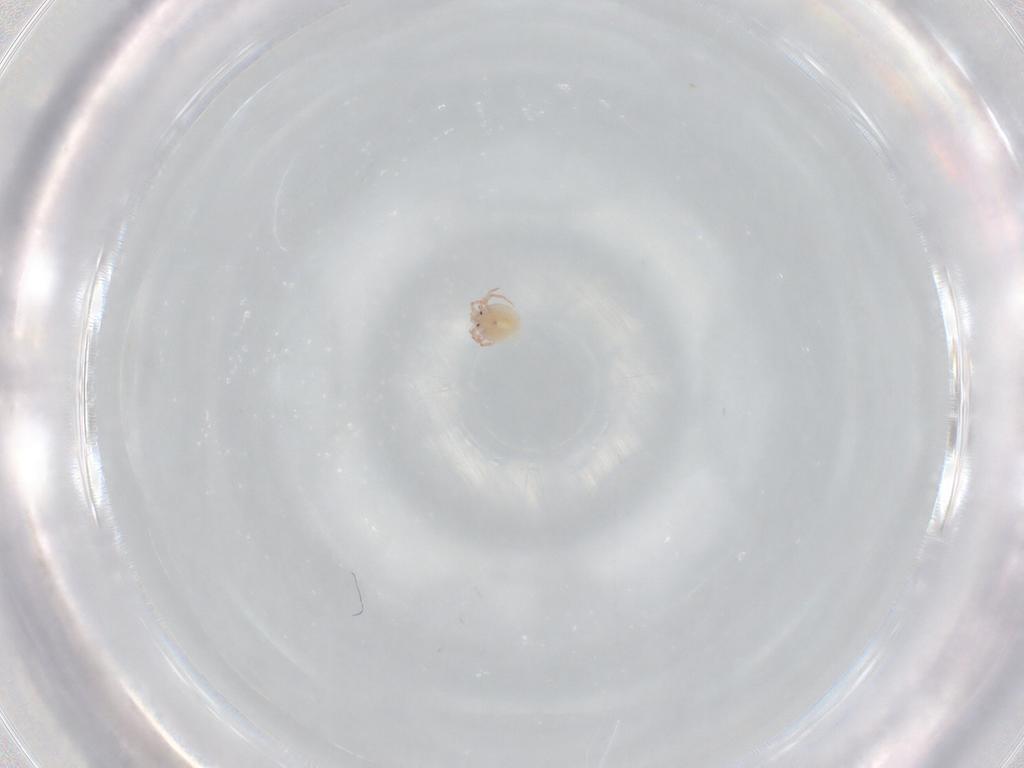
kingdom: Animalia
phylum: Arthropoda
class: Arachnida
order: Trombidiformes
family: Lebertiidae
